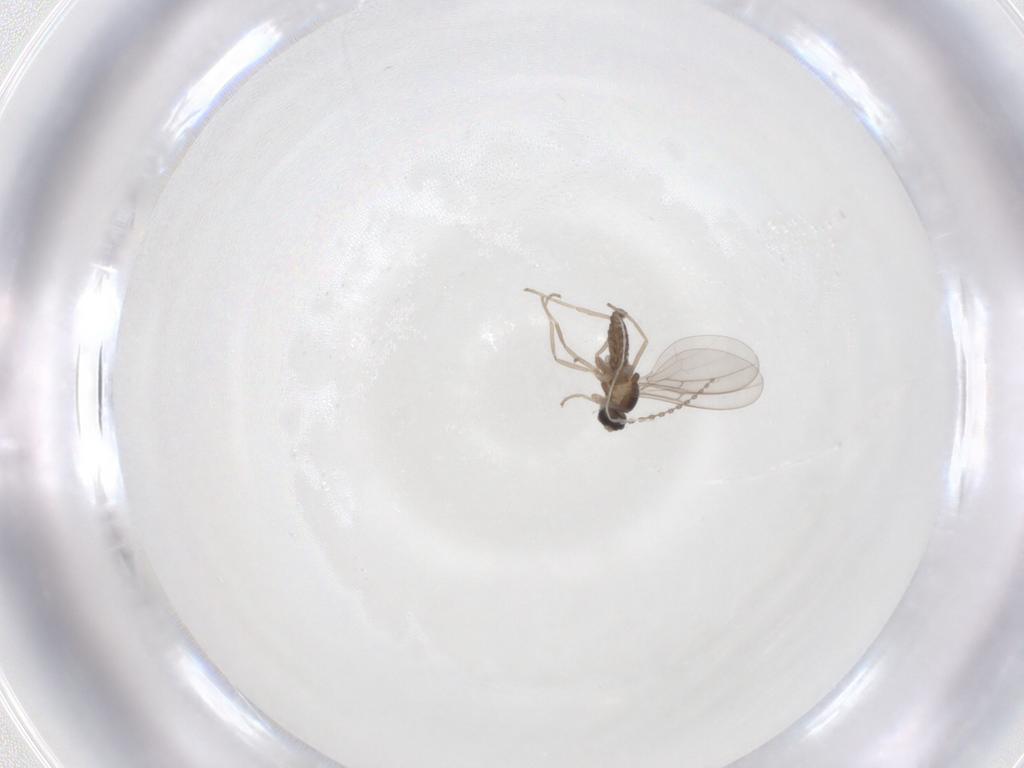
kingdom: Animalia
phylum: Arthropoda
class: Insecta
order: Diptera
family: Cecidomyiidae
